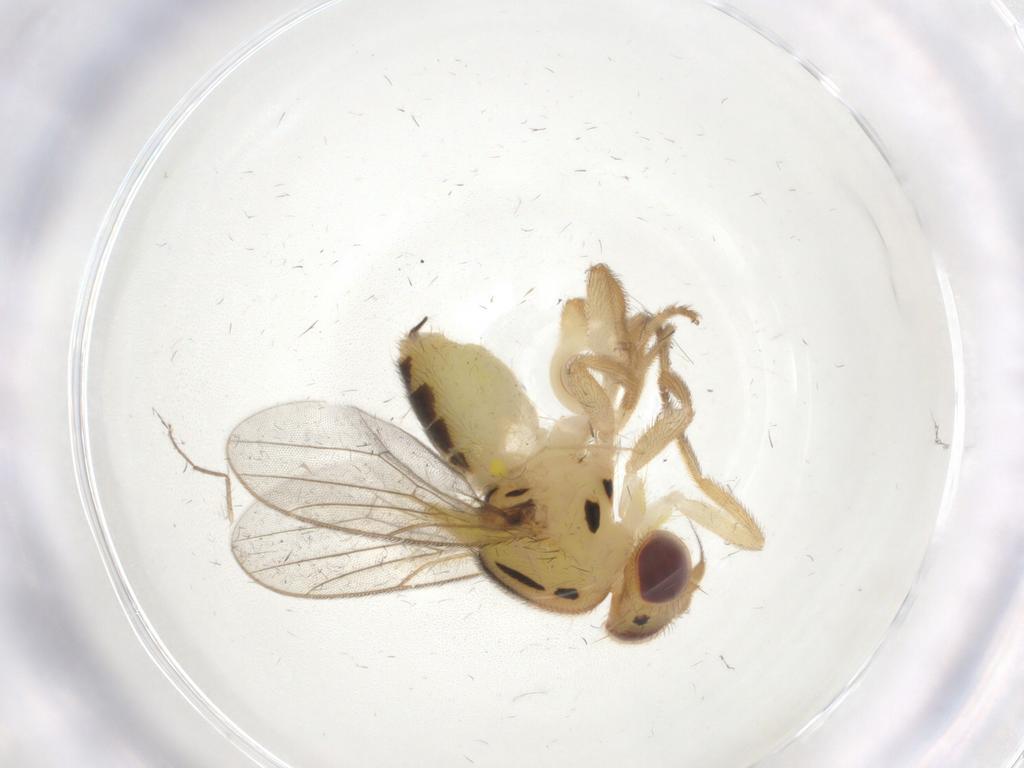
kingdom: Animalia
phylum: Arthropoda
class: Insecta
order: Diptera
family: Chloropidae
